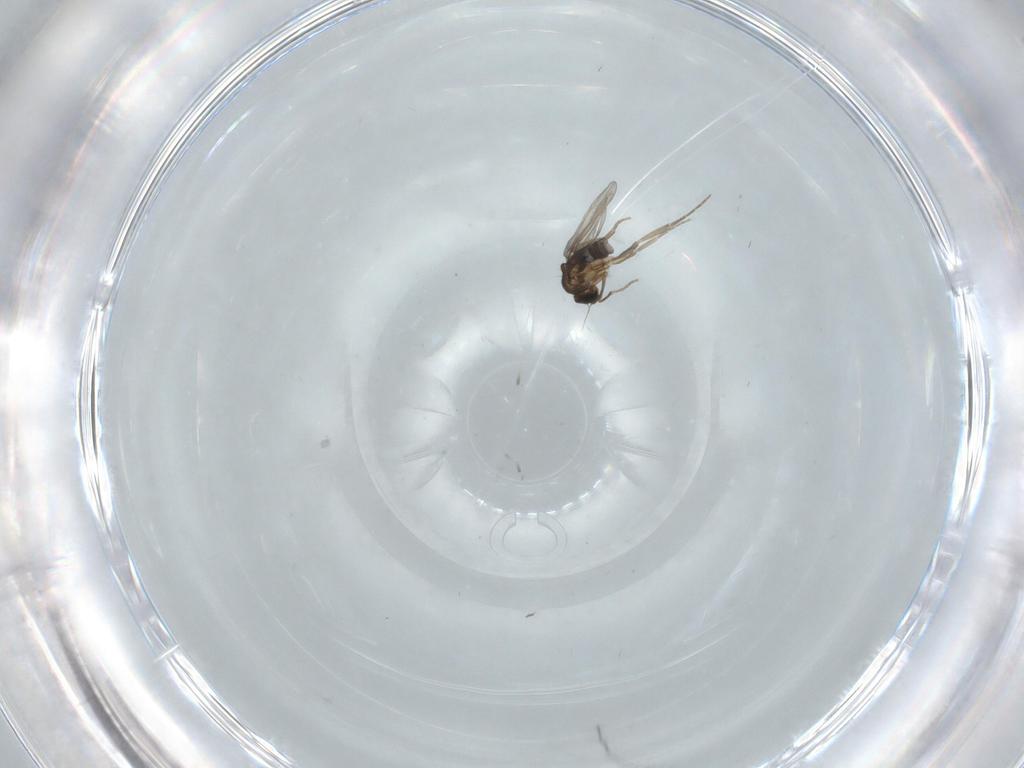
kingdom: Animalia
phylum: Arthropoda
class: Insecta
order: Diptera
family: Phoridae
